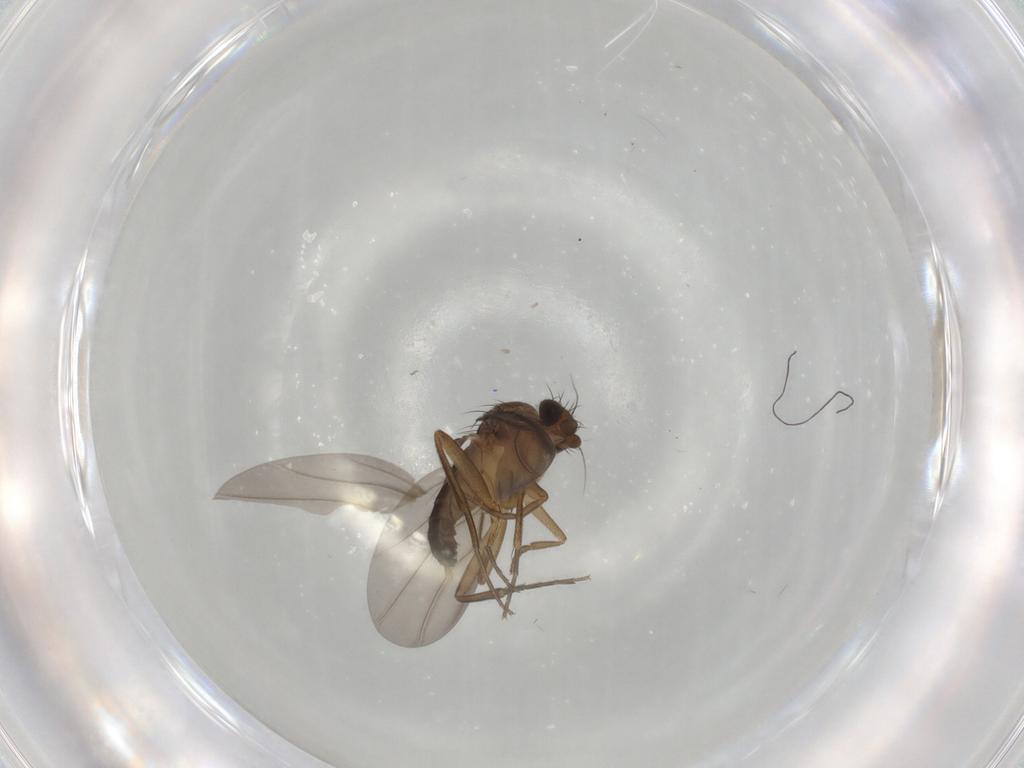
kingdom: Animalia
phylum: Arthropoda
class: Insecta
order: Diptera
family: Phoridae
